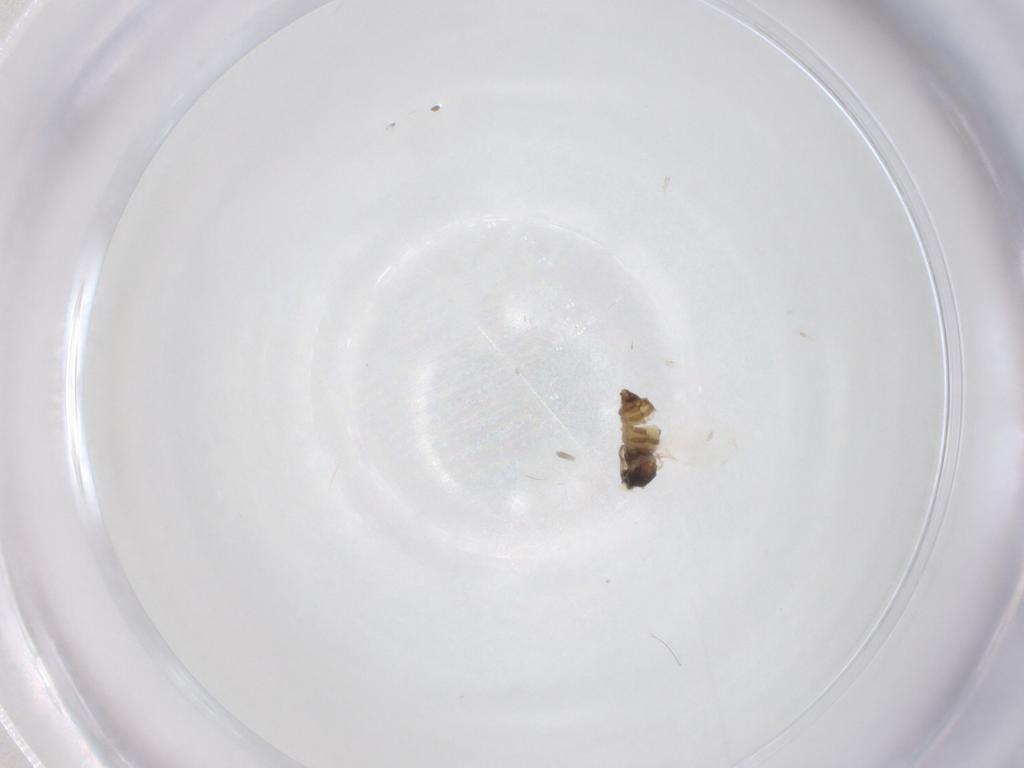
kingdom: Animalia
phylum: Arthropoda
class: Insecta
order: Diptera
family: Cecidomyiidae
